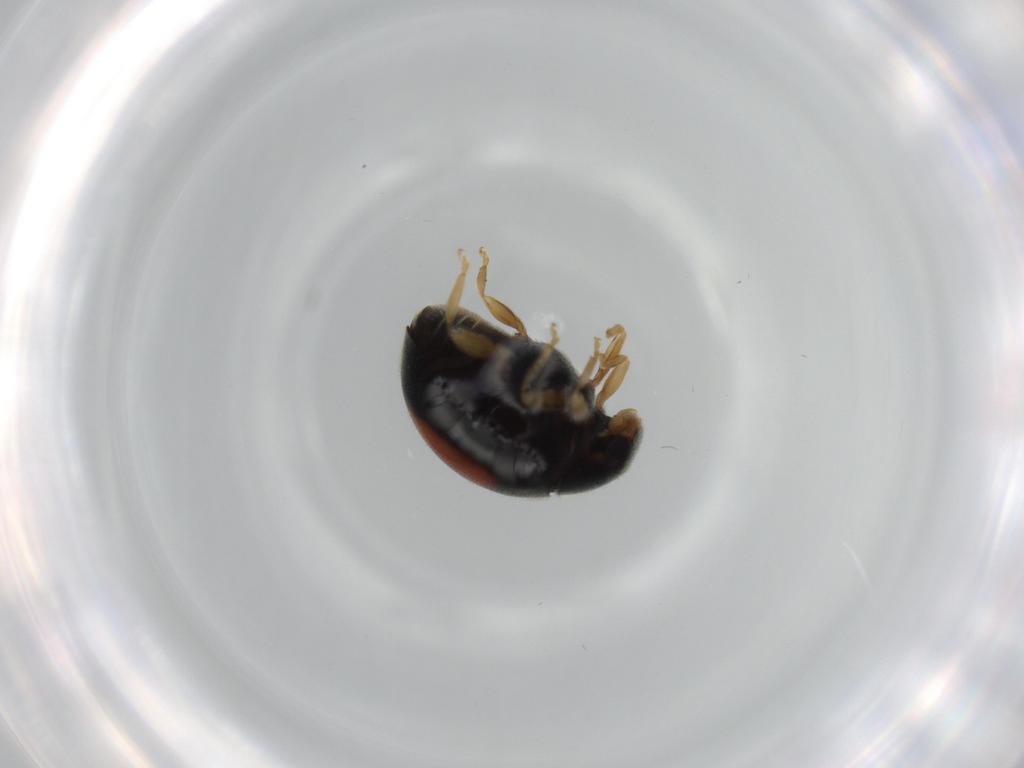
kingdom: Animalia
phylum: Arthropoda
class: Insecta
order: Coleoptera
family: Coccinellidae
